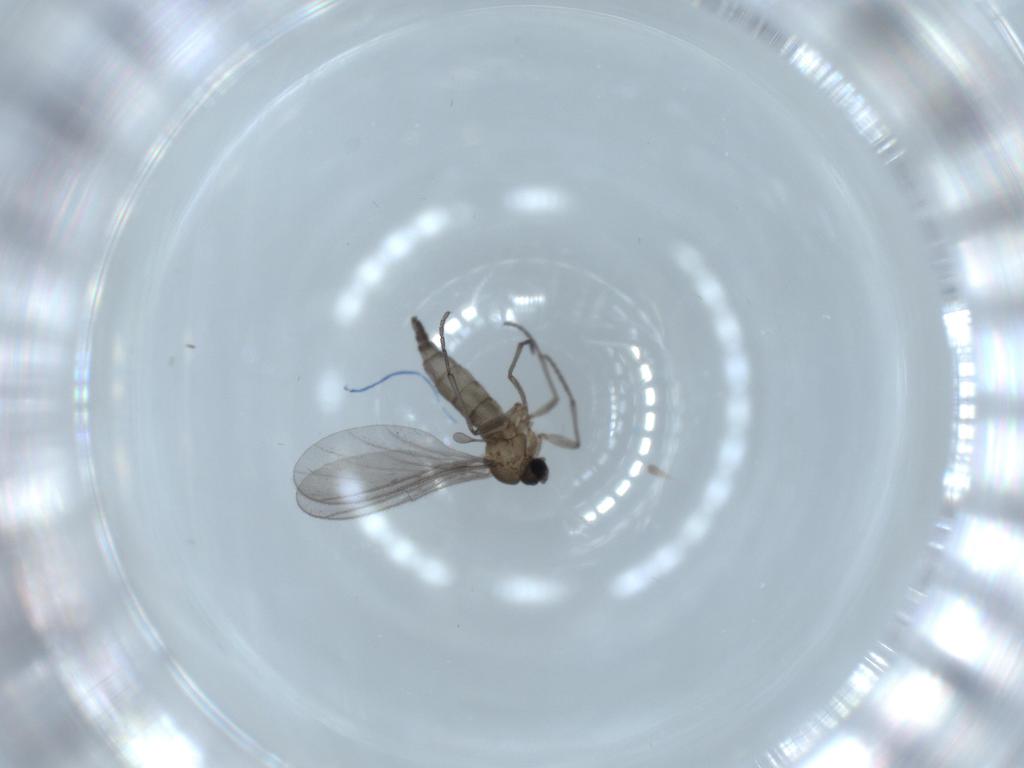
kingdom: Animalia
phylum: Arthropoda
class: Insecta
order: Diptera
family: Sciaridae
